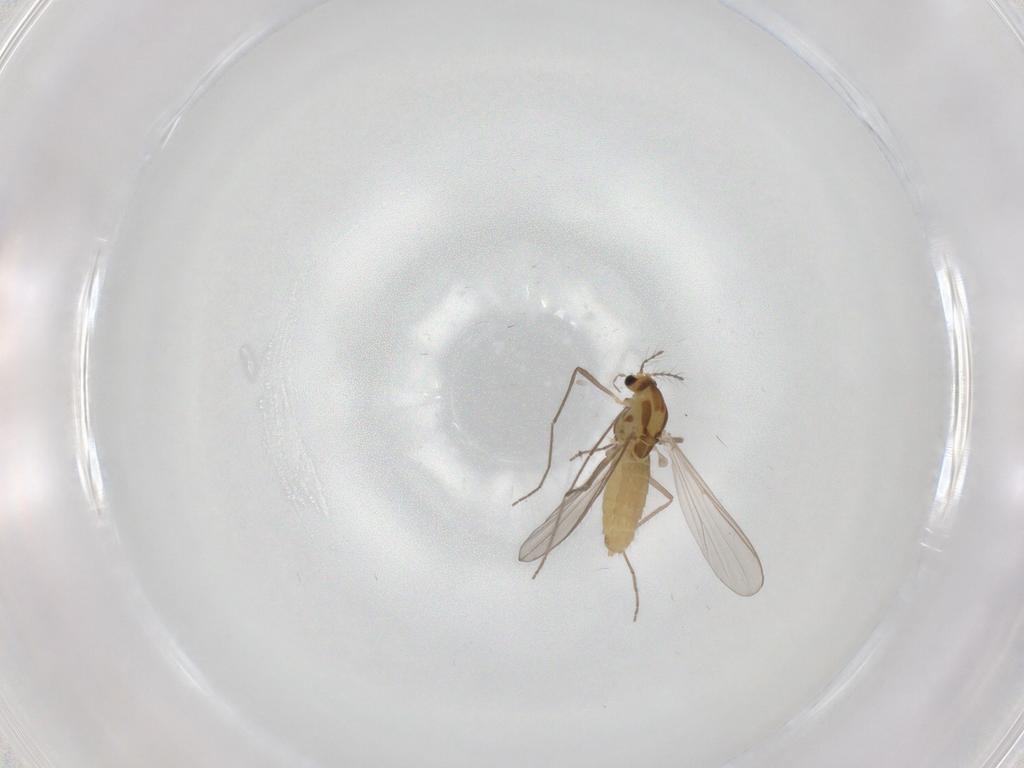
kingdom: Animalia
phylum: Arthropoda
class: Insecta
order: Diptera
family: Chironomidae
